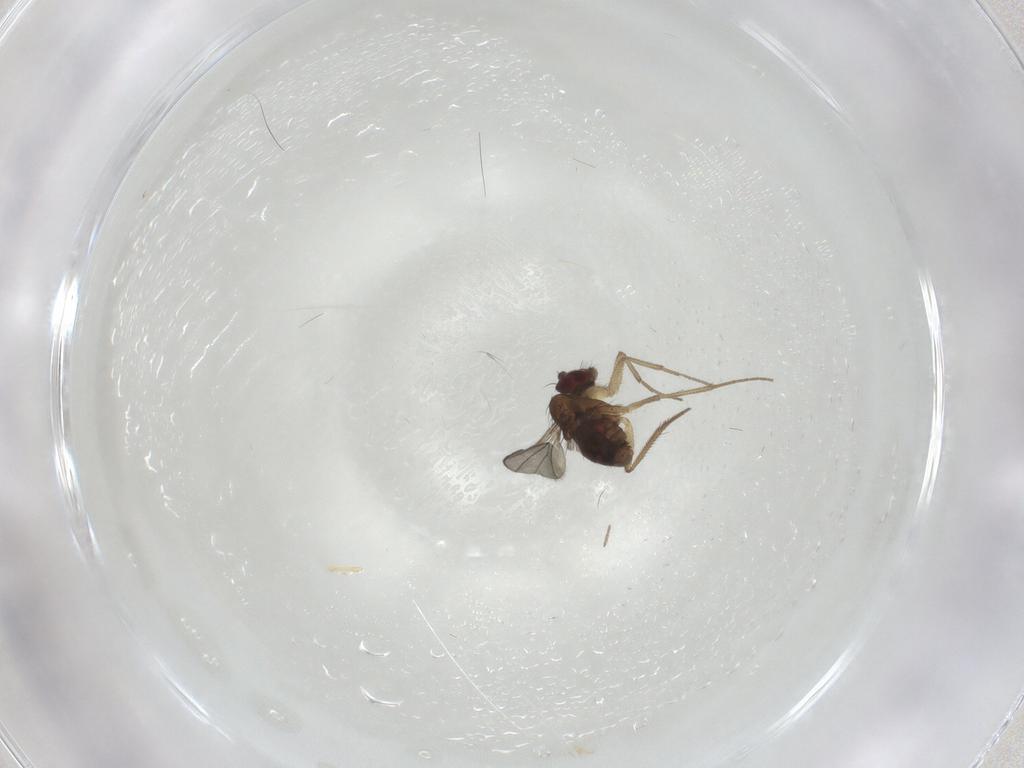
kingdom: Animalia
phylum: Arthropoda
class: Insecta
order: Diptera
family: Dolichopodidae
